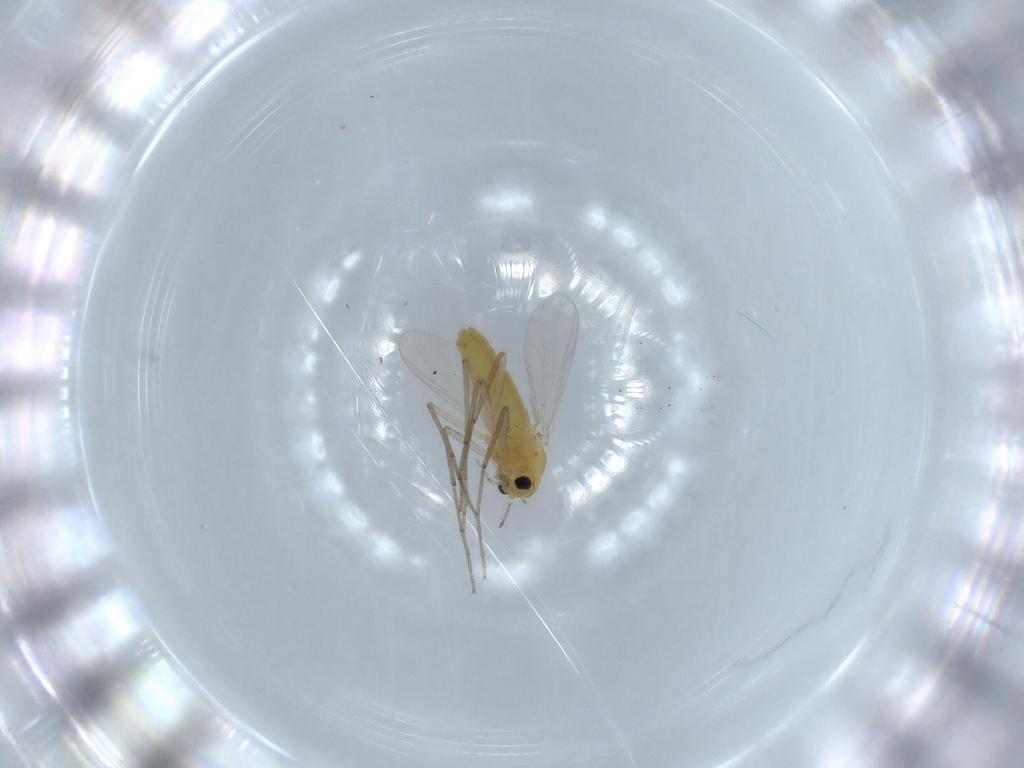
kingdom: Animalia
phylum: Arthropoda
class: Insecta
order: Diptera
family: Chironomidae
